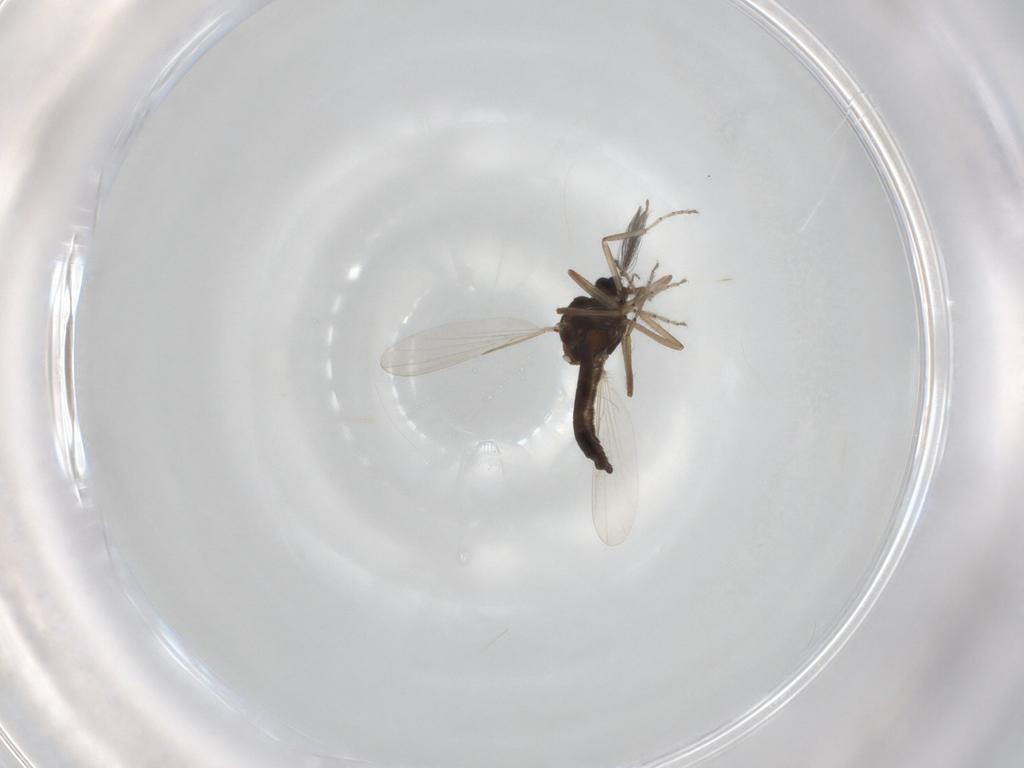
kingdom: Animalia
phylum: Arthropoda
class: Insecta
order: Diptera
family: Ceratopogonidae
